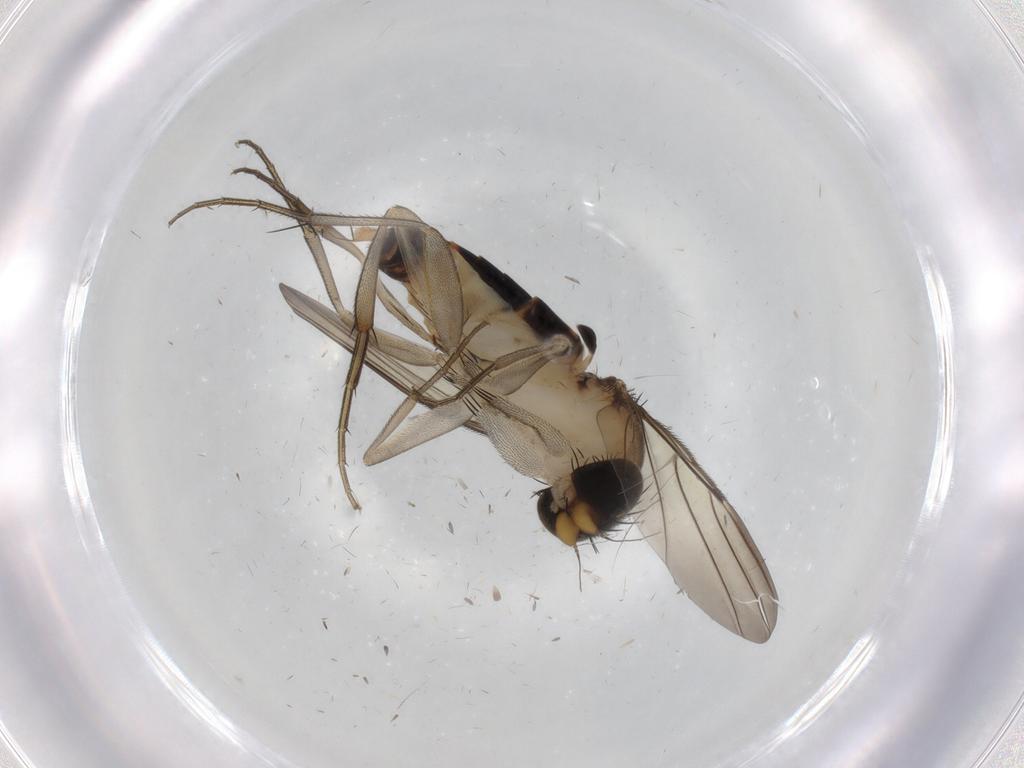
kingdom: Animalia
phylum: Arthropoda
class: Insecta
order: Diptera
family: Phoridae
